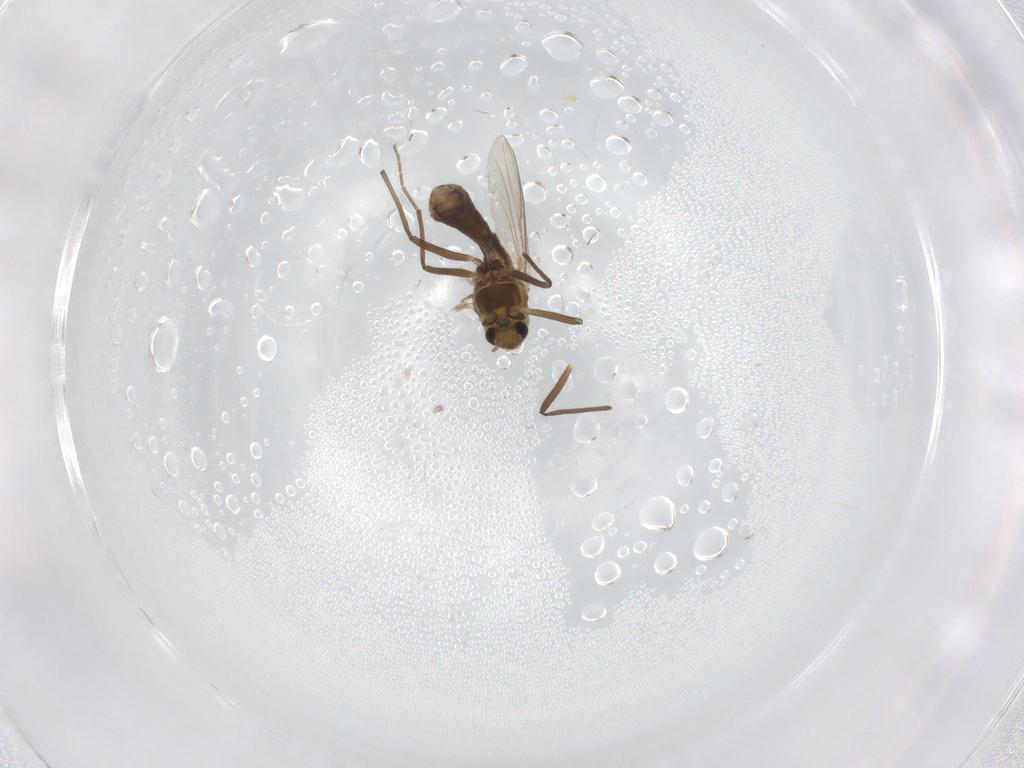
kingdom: Animalia
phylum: Arthropoda
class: Insecta
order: Diptera
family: Chironomidae
